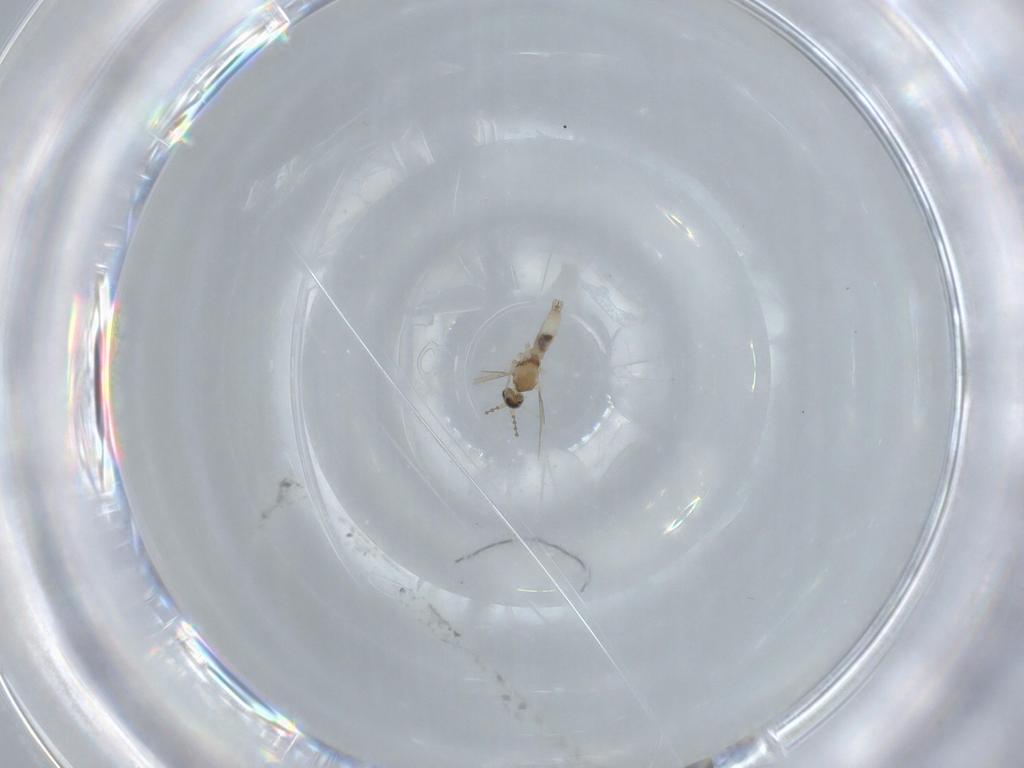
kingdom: Animalia
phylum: Arthropoda
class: Insecta
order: Diptera
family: Cecidomyiidae
